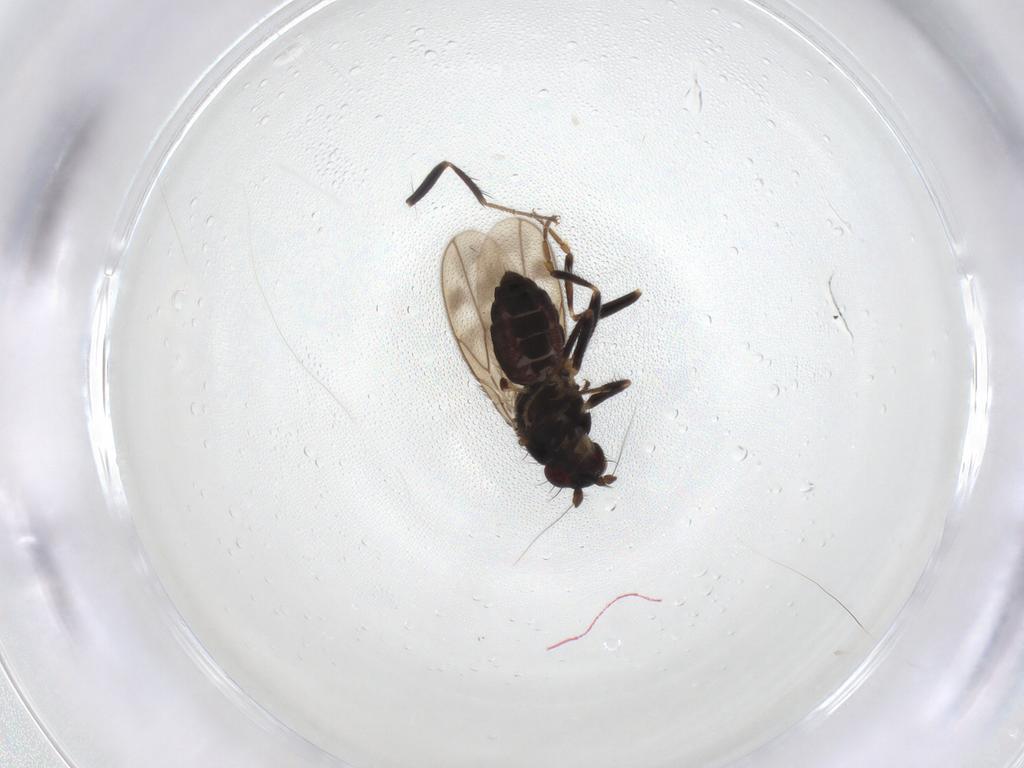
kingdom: Animalia
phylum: Arthropoda
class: Insecta
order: Diptera
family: Sphaeroceridae
